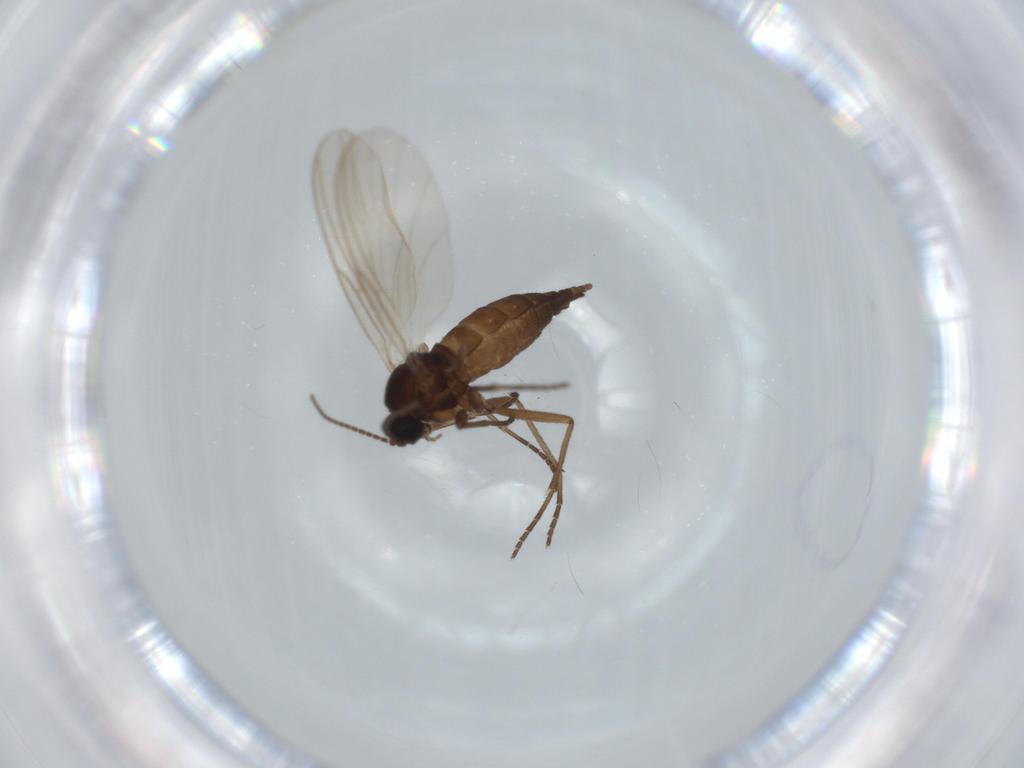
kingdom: Animalia
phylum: Arthropoda
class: Insecta
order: Diptera
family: Sciaridae
